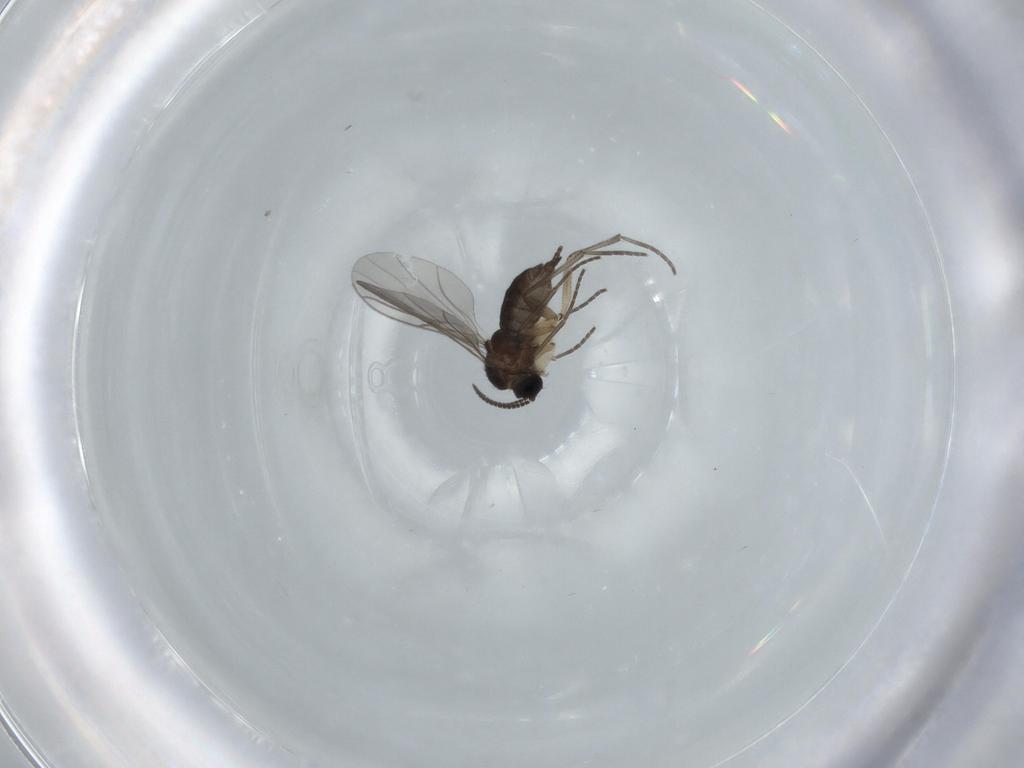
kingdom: Animalia
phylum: Arthropoda
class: Insecta
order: Diptera
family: Sciaridae
